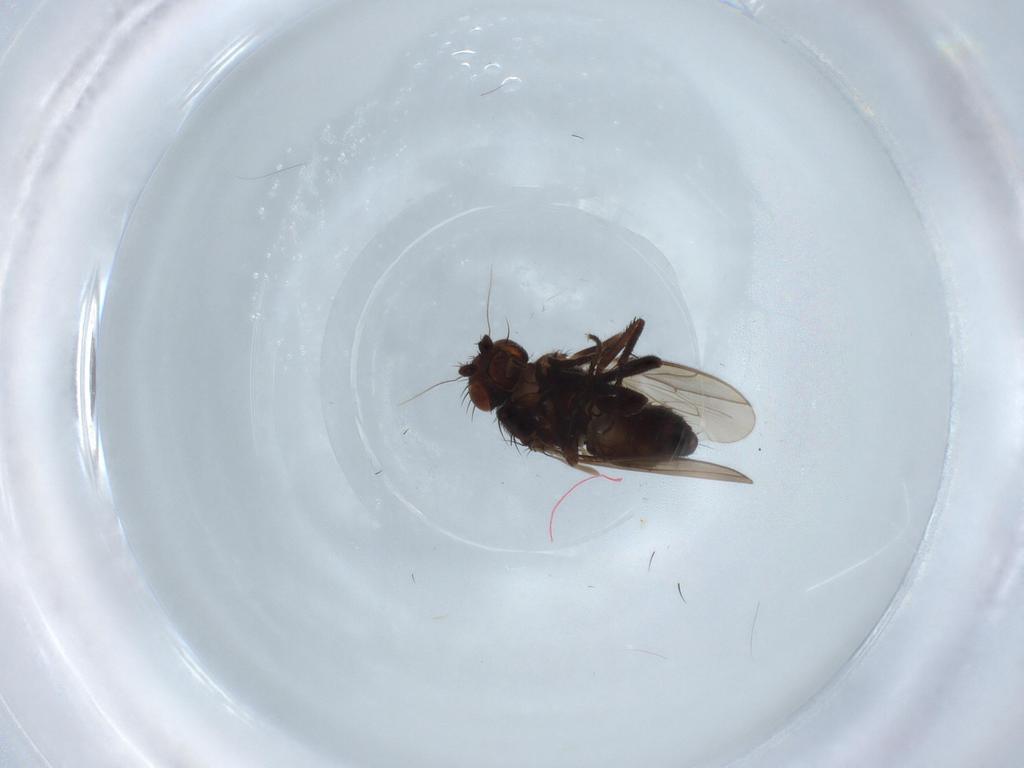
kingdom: Animalia
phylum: Arthropoda
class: Insecta
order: Diptera
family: Sphaeroceridae
